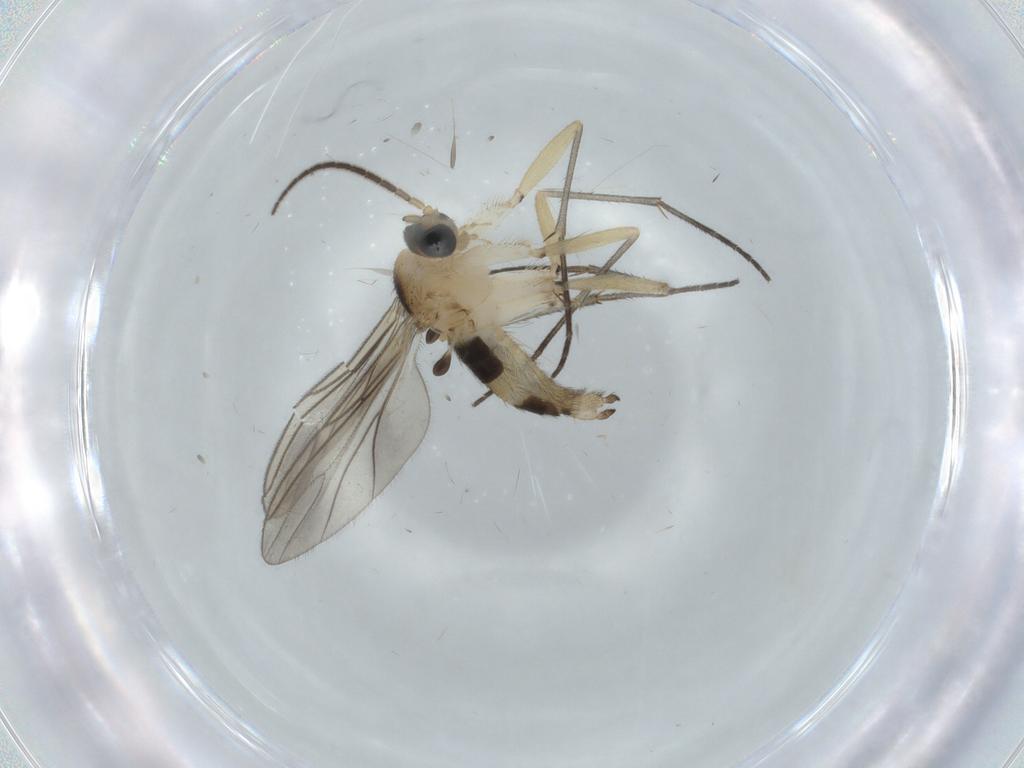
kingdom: Animalia
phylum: Arthropoda
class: Insecta
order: Diptera
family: Sciaridae
